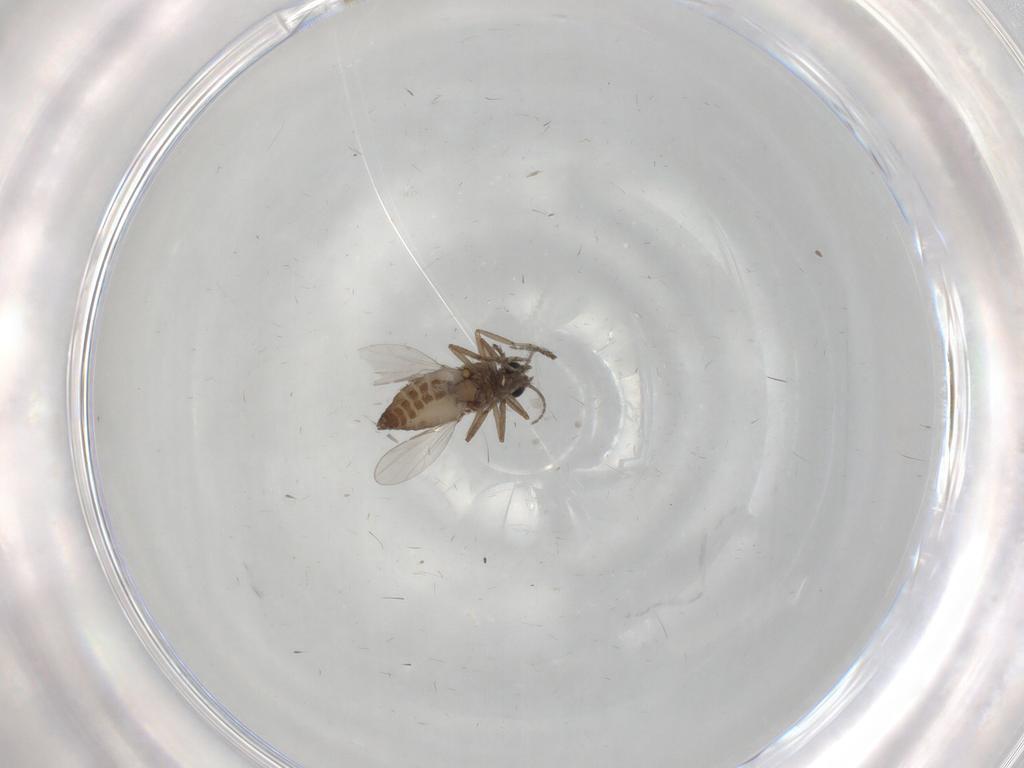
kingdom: Animalia
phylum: Arthropoda
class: Insecta
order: Diptera
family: Ceratopogonidae
